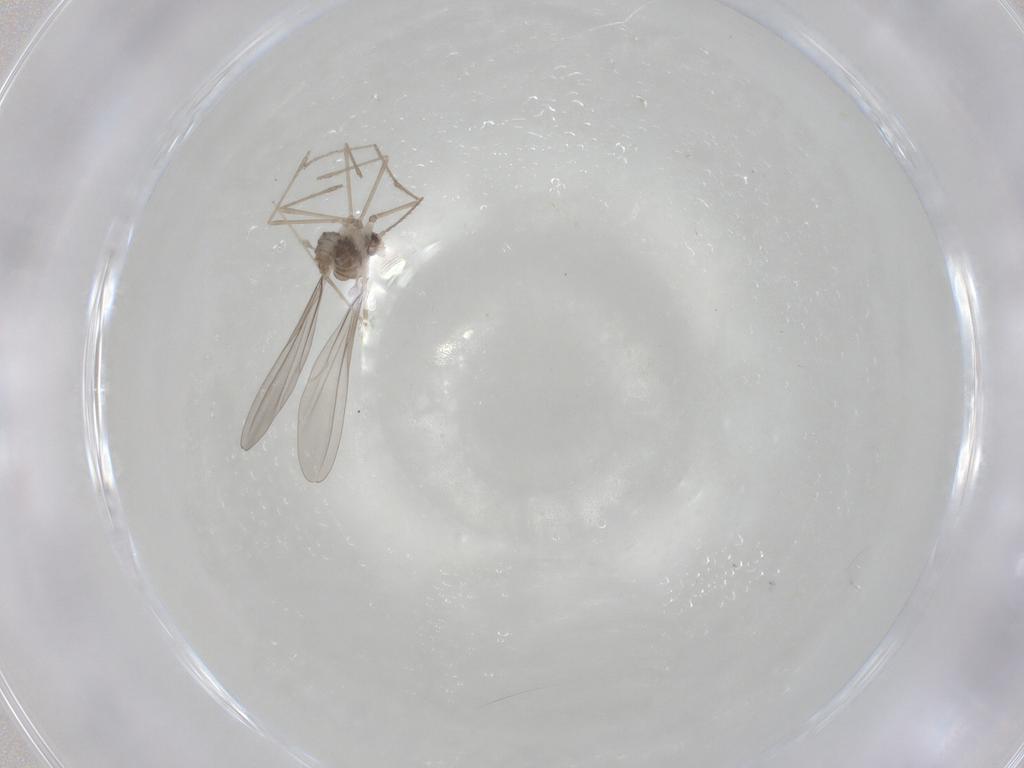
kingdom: Animalia
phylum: Arthropoda
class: Insecta
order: Diptera
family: Cecidomyiidae
